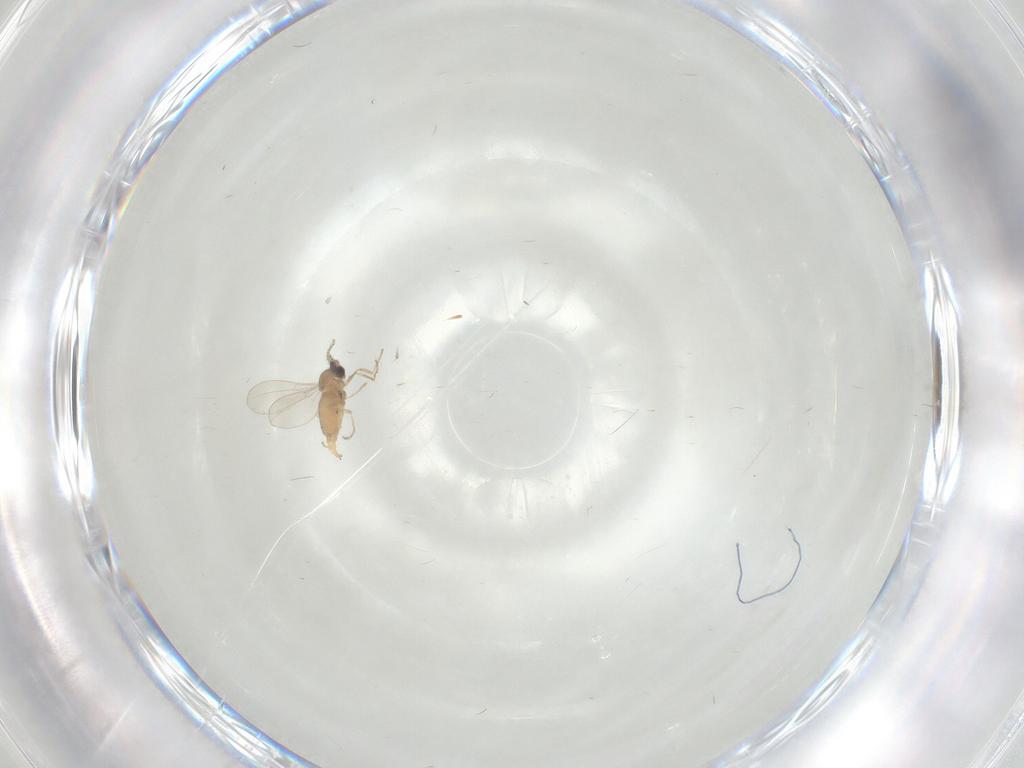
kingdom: Animalia
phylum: Arthropoda
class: Insecta
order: Diptera
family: Cecidomyiidae
